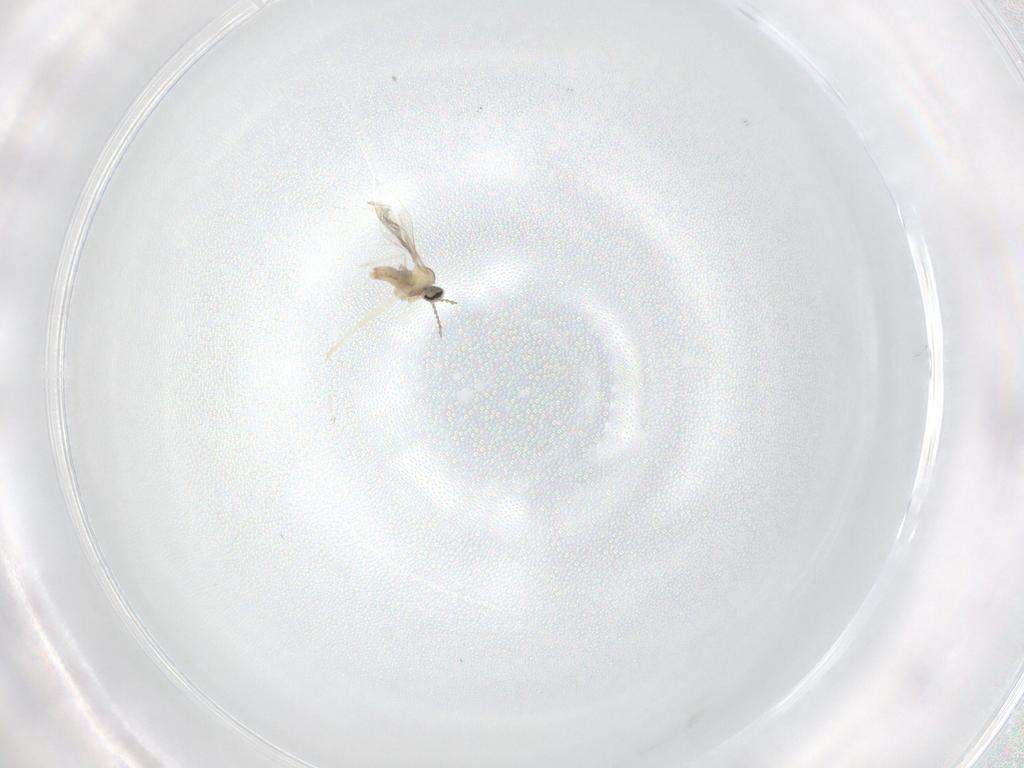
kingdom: Animalia
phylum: Arthropoda
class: Insecta
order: Diptera
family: Cecidomyiidae
